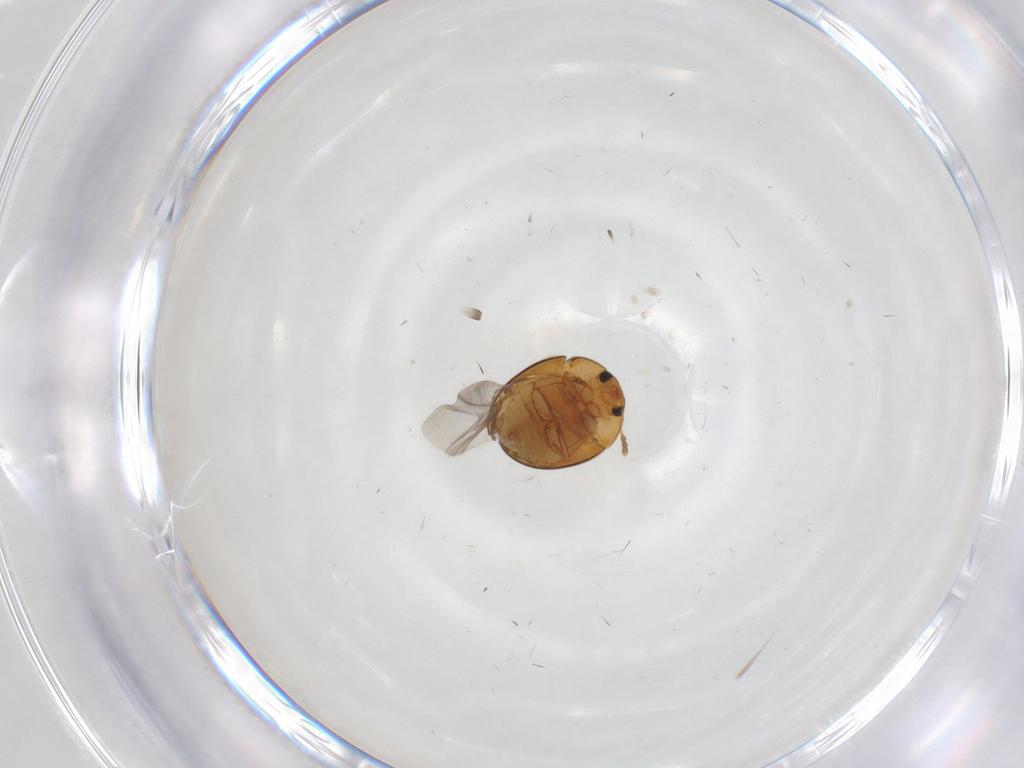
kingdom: Animalia
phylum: Arthropoda
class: Insecta
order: Coleoptera
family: Phalacridae
